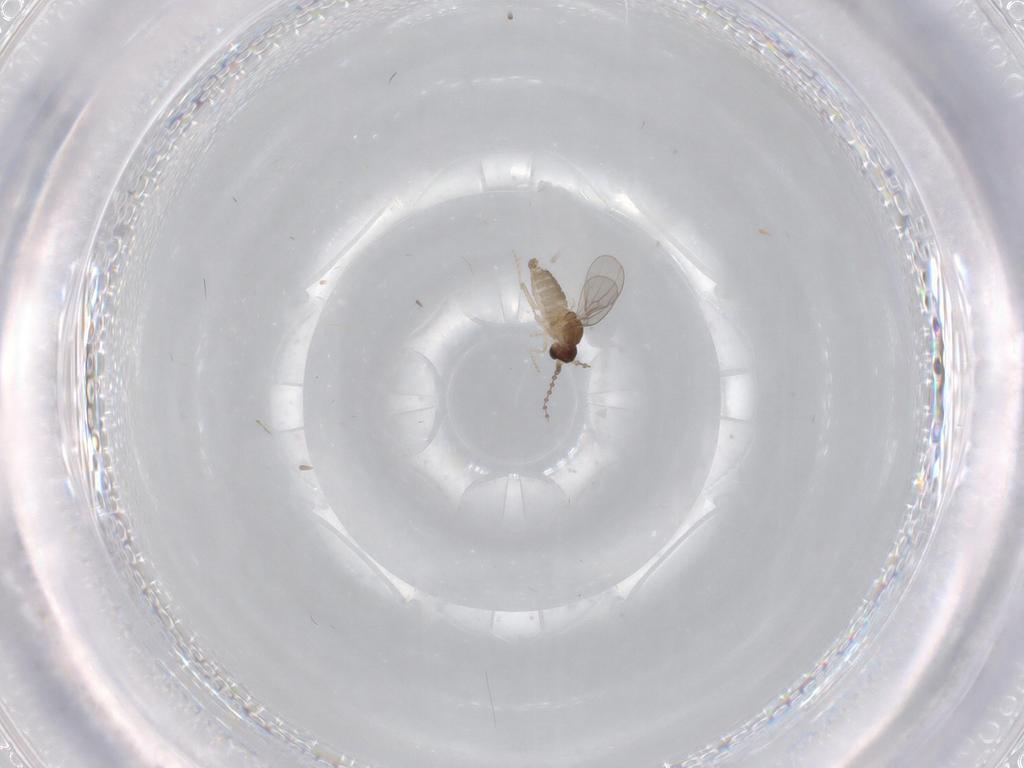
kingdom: Animalia
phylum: Arthropoda
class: Insecta
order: Diptera
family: Cecidomyiidae
